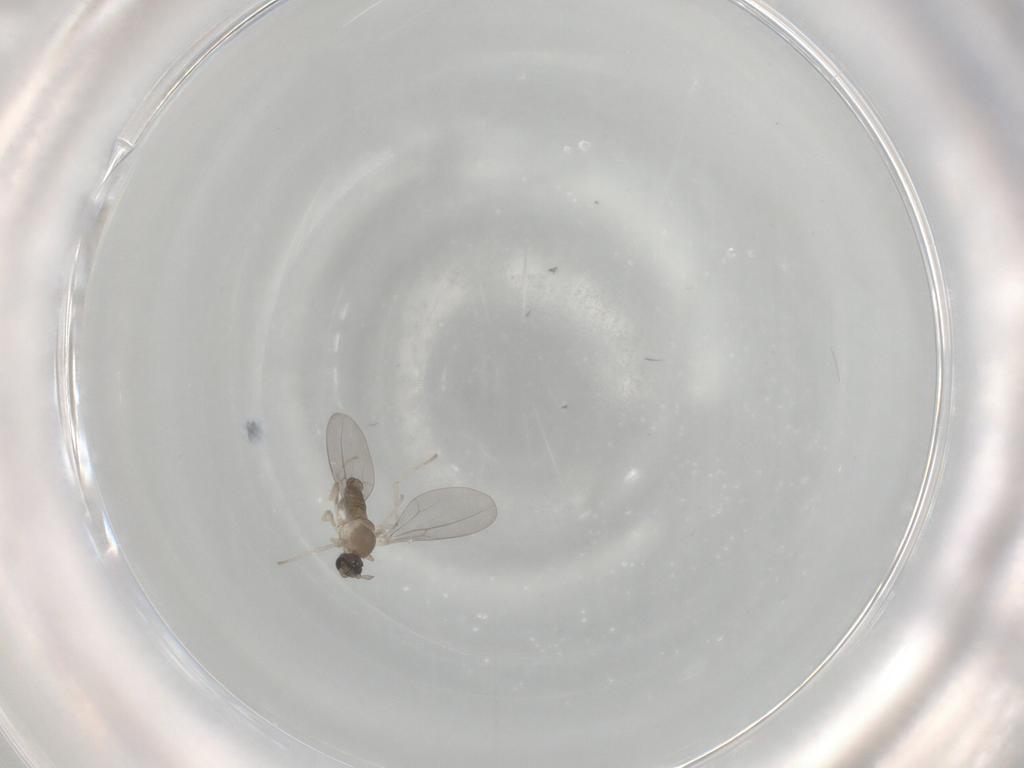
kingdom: Animalia
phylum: Arthropoda
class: Insecta
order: Diptera
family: Cecidomyiidae
